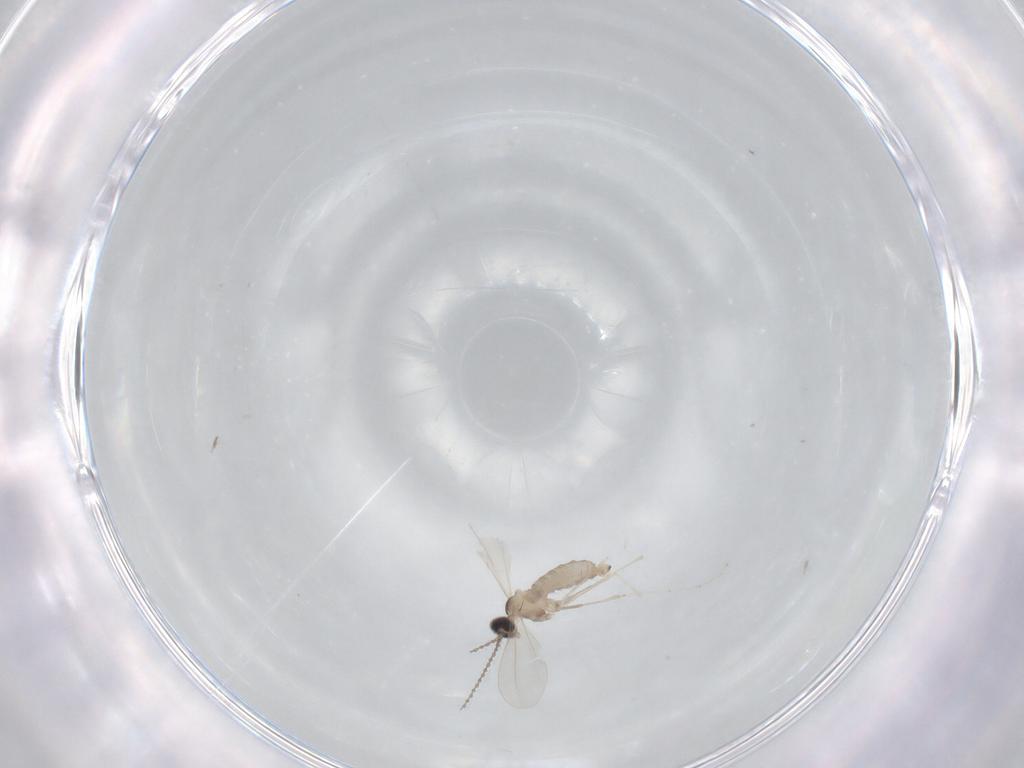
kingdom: Animalia
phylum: Arthropoda
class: Insecta
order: Diptera
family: Cecidomyiidae
